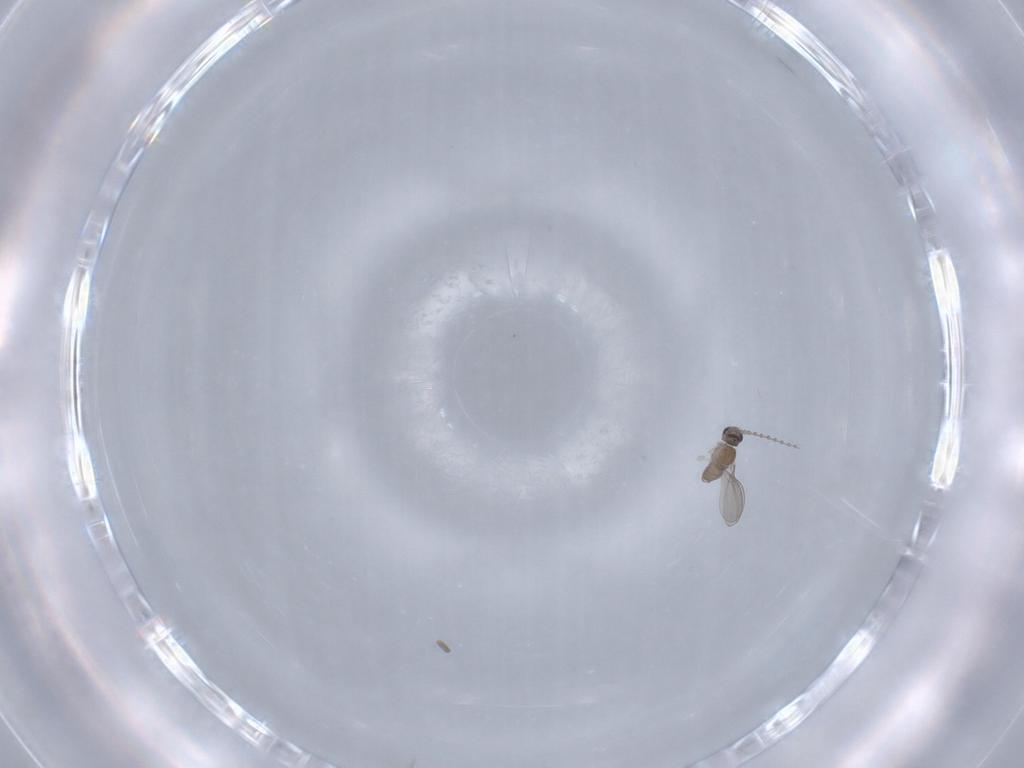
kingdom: Animalia
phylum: Arthropoda
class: Insecta
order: Diptera
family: Cecidomyiidae
